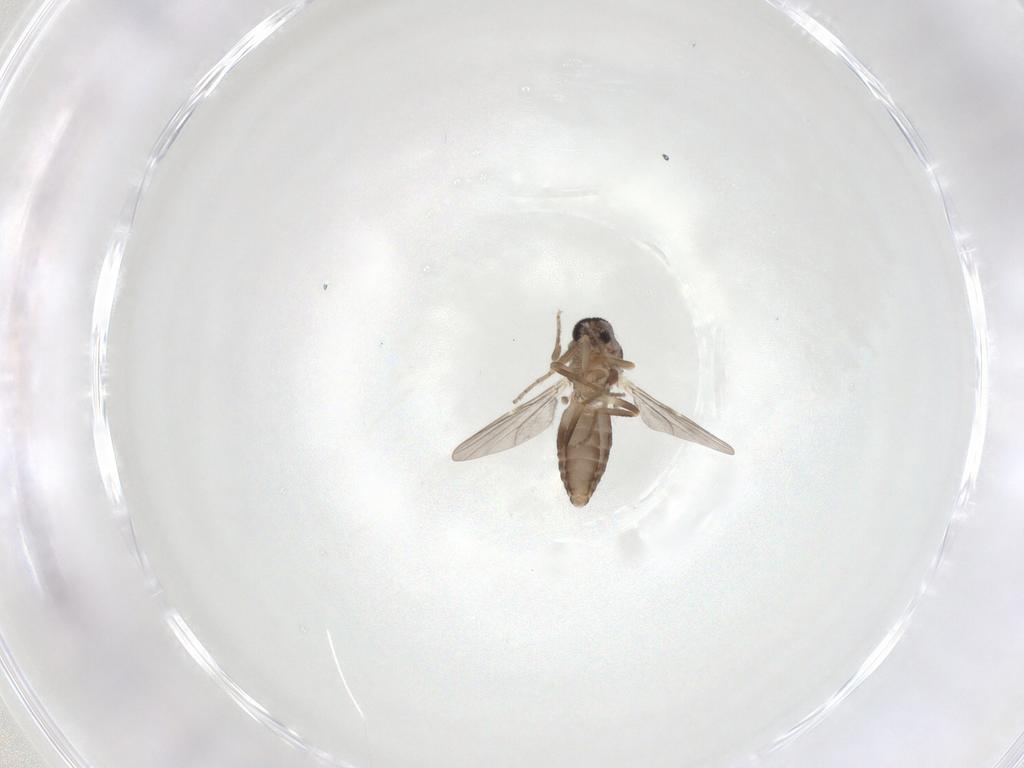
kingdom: Animalia
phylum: Arthropoda
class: Insecta
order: Diptera
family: Ceratopogonidae
